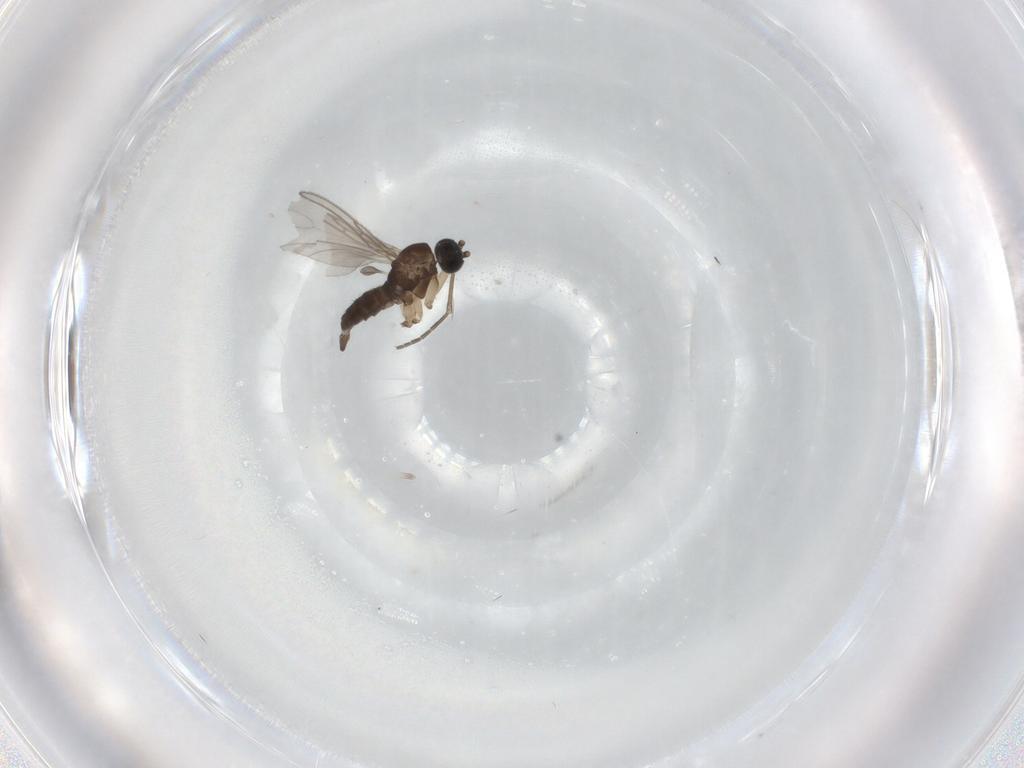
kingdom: Animalia
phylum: Arthropoda
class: Insecta
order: Diptera
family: Sciaridae
